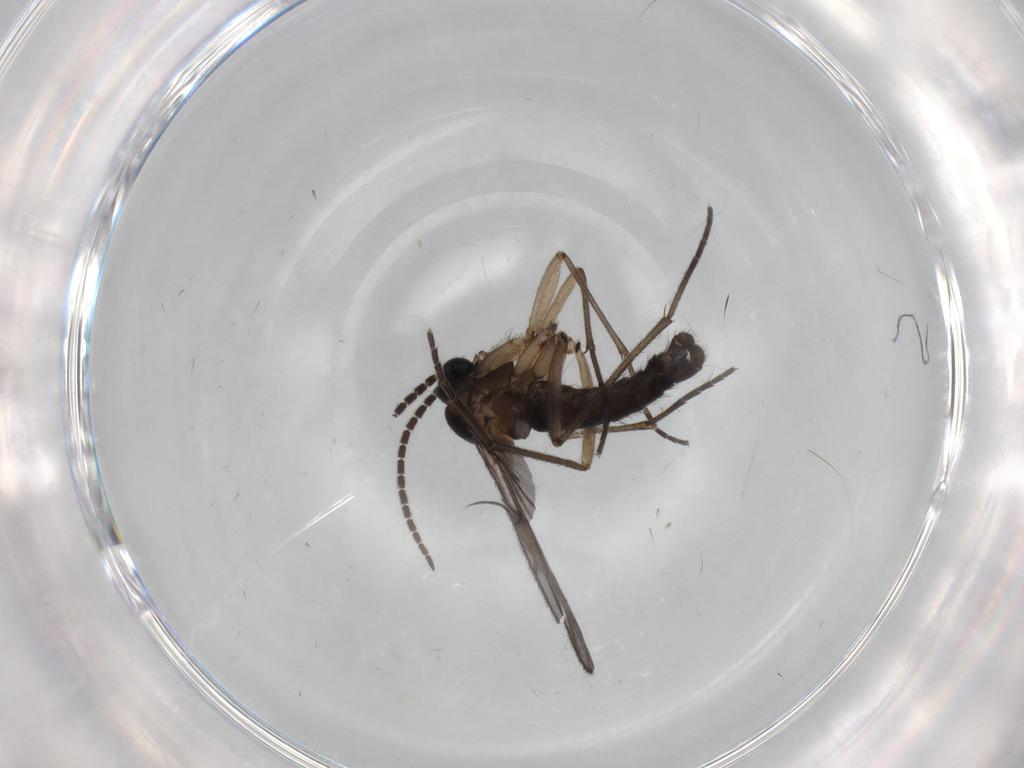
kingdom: Animalia
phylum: Arthropoda
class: Insecta
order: Diptera
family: Sciaridae
